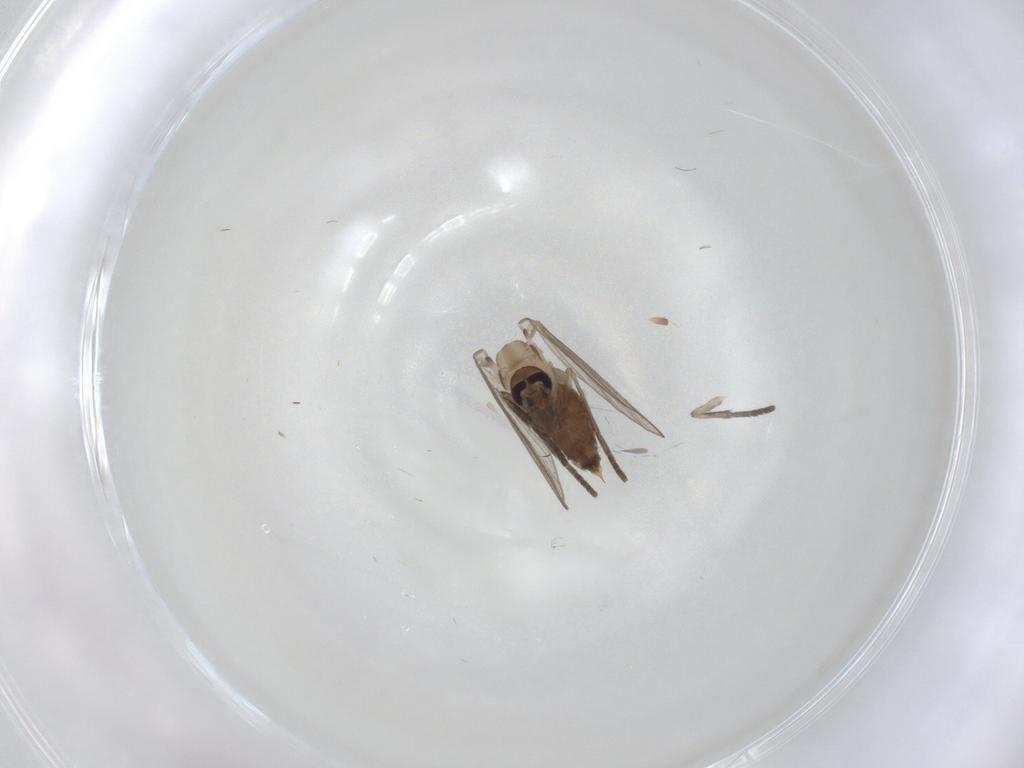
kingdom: Animalia
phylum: Arthropoda
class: Insecta
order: Diptera
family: Psychodidae
